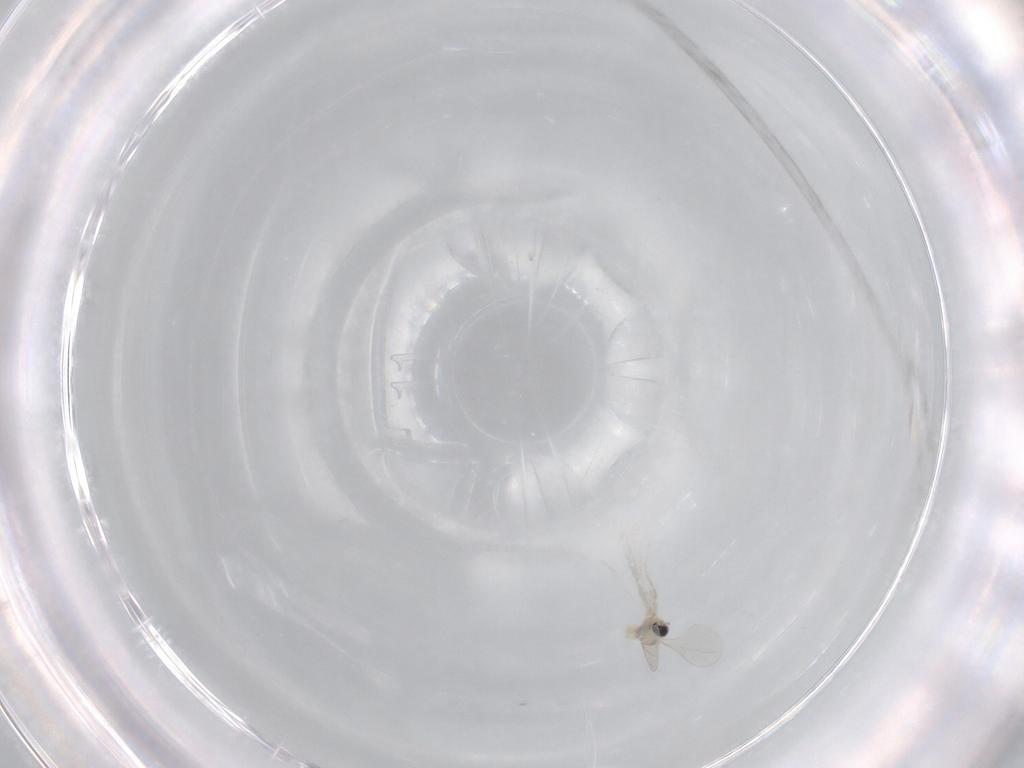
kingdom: Animalia
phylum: Arthropoda
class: Insecta
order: Diptera
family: Cecidomyiidae
